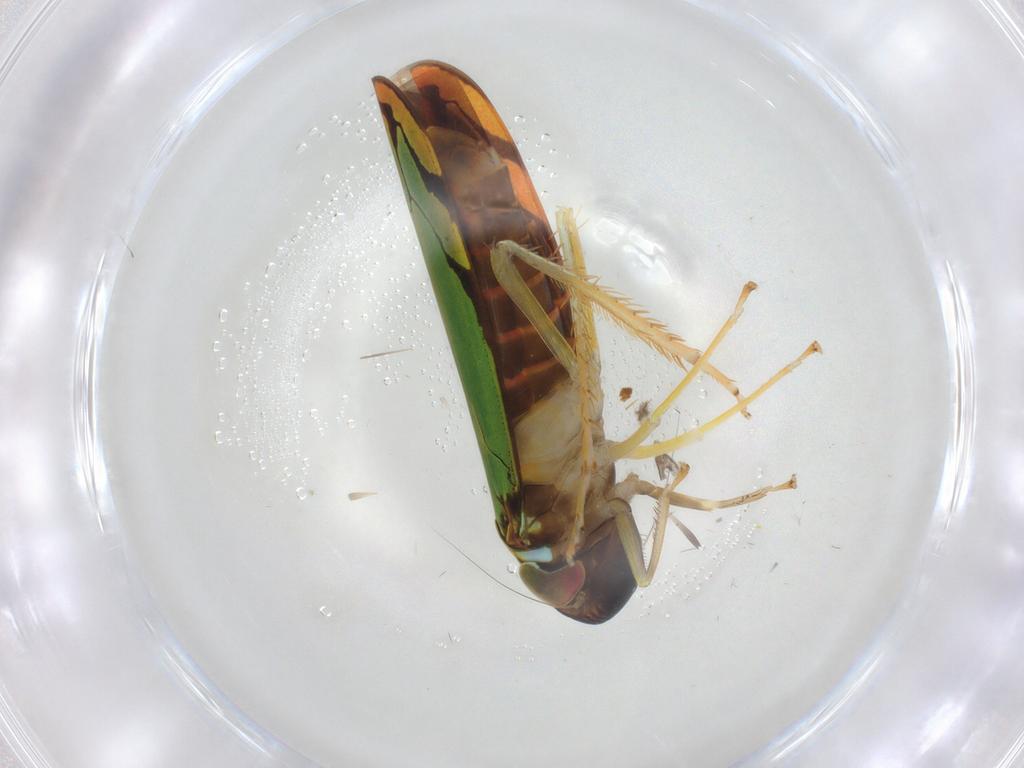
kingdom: Animalia
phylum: Arthropoda
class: Insecta
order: Hemiptera
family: Cicadellidae
